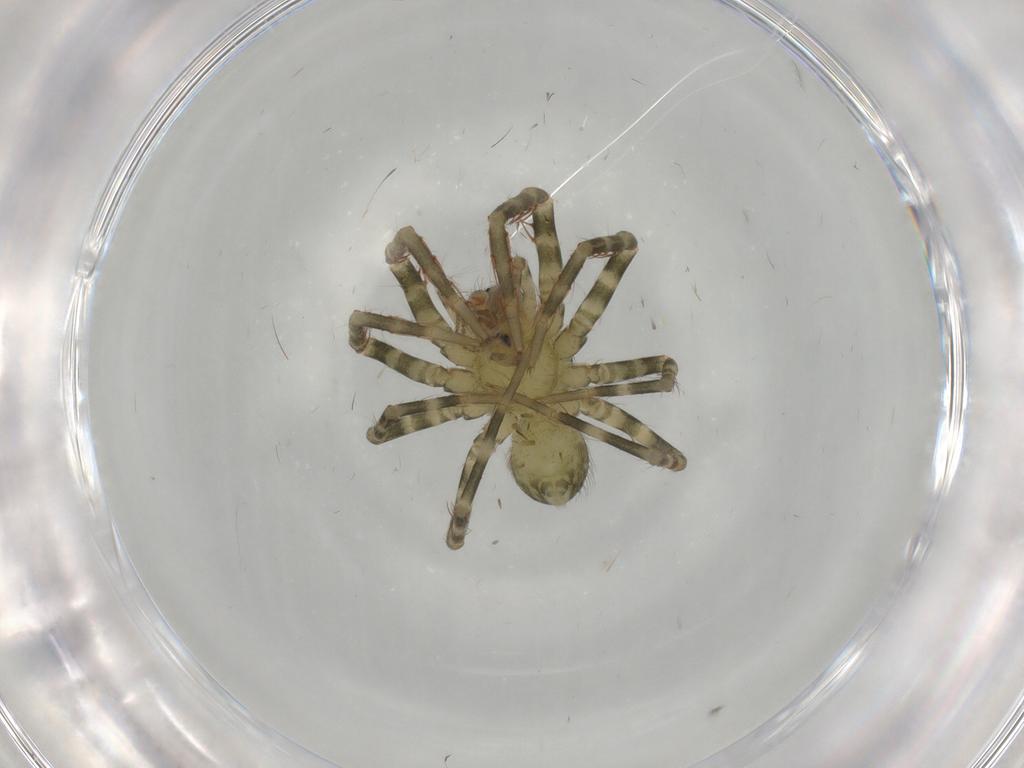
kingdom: Animalia
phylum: Arthropoda
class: Arachnida
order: Araneae
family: Ctenidae
